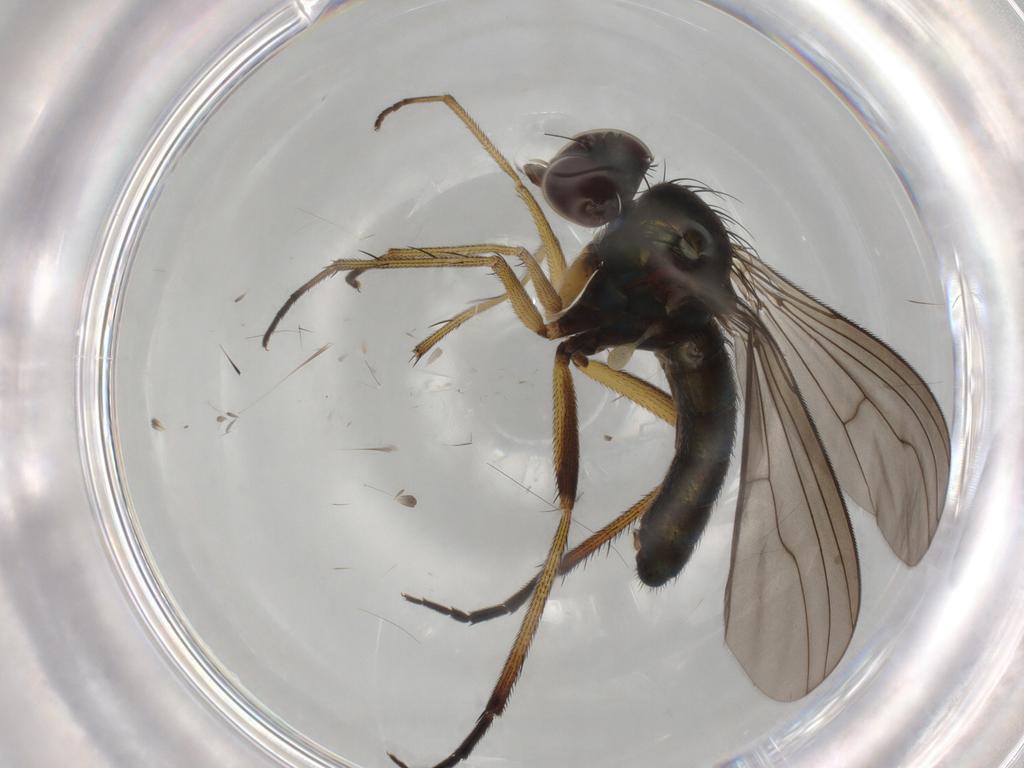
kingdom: Animalia
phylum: Arthropoda
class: Insecta
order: Diptera
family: Dolichopodidae
